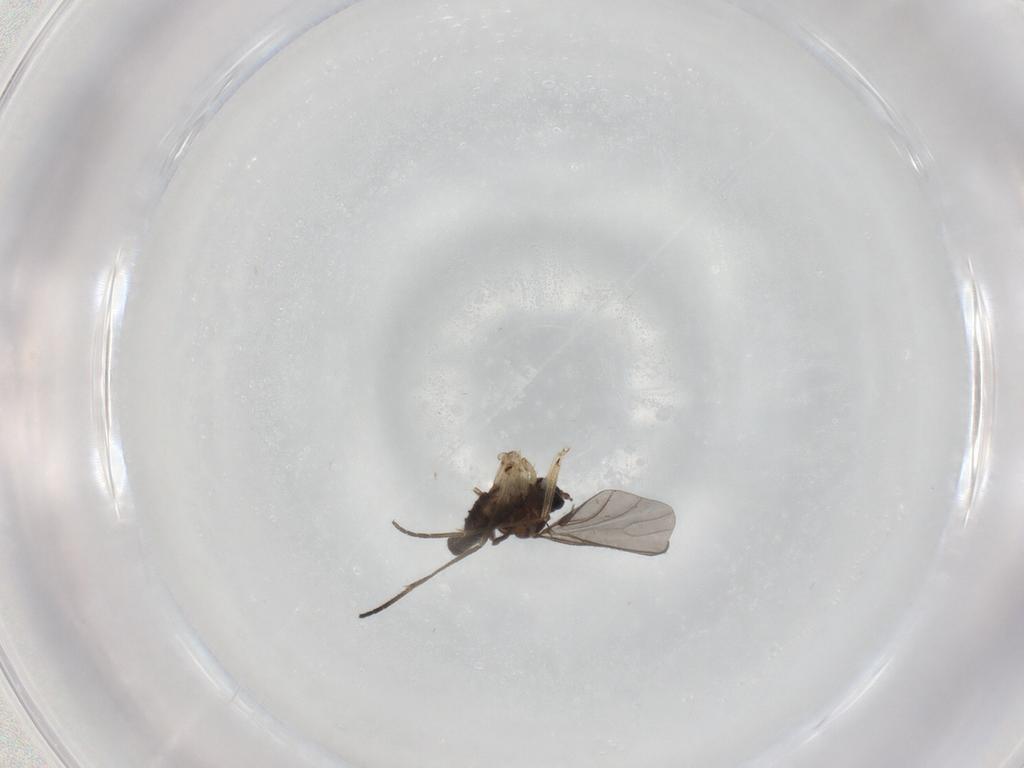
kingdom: Animalia
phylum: Arthropoda
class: Insecta
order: Diptera
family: Sciaridae
